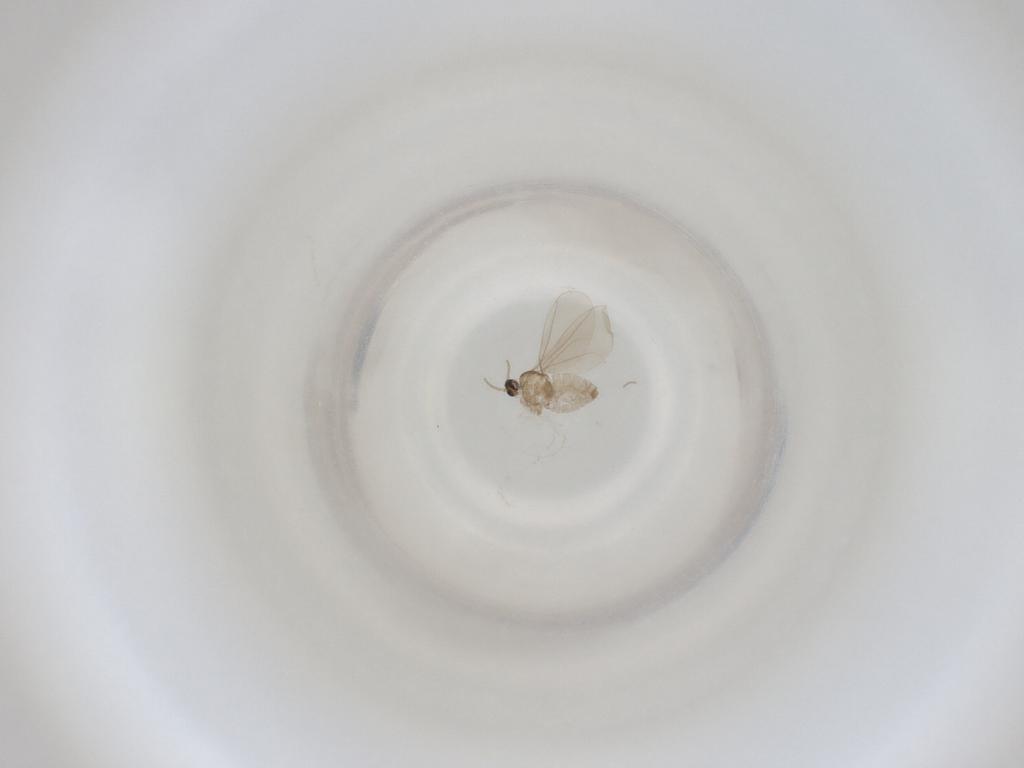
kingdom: Animalia
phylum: Arthropoda
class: Insecta
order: Diptera
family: Cecidomyiidae
